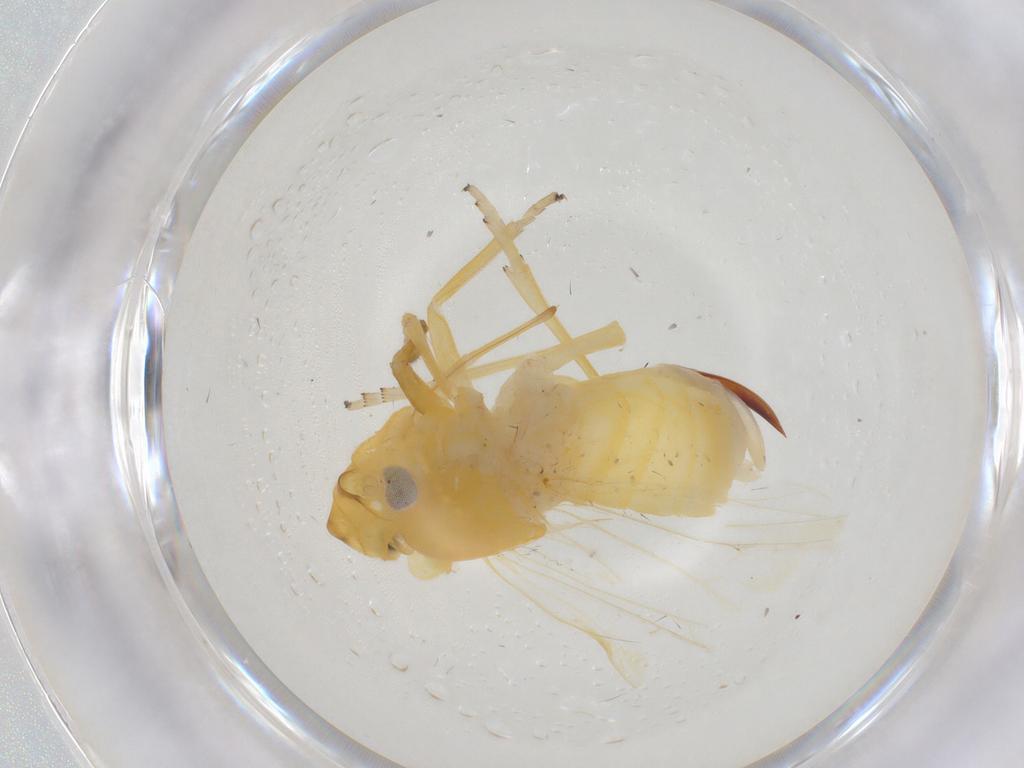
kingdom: Animalia
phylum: Arthropoda
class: Insecta
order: Hemiptera
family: Cixiidae
